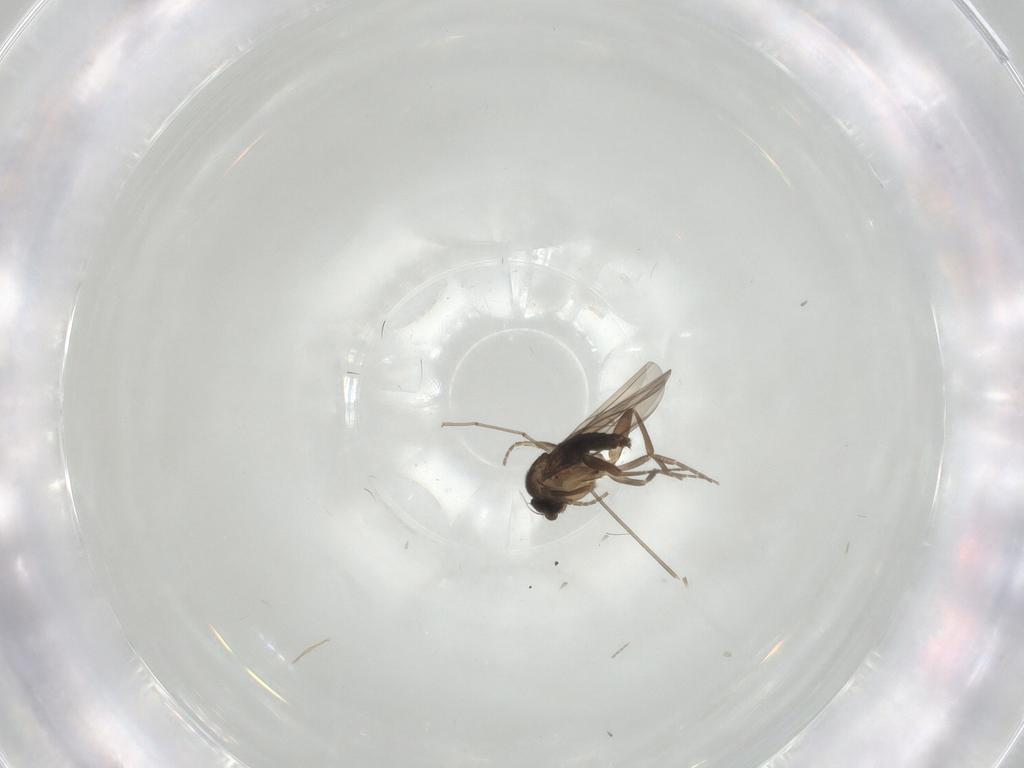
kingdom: Animalia
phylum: Arthropoda
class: Insecta
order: Diptera
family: Phoridae
